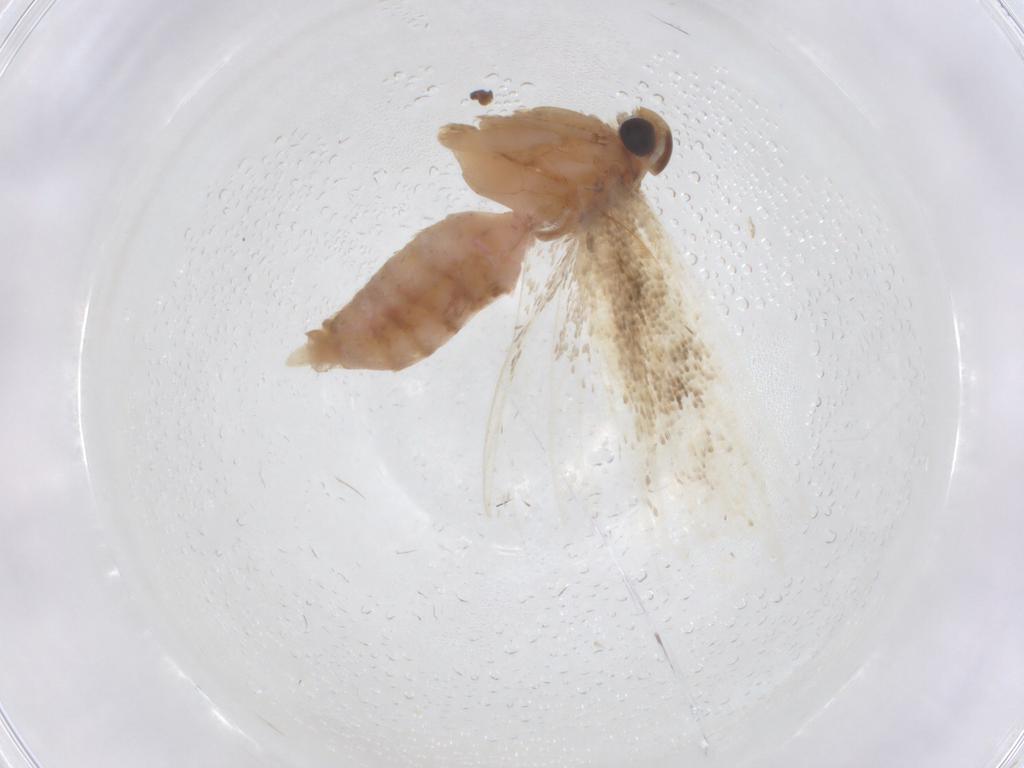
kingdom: Animalia
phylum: Arthropoda
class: Insecta
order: Lepidoptera
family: Gelechiidae
